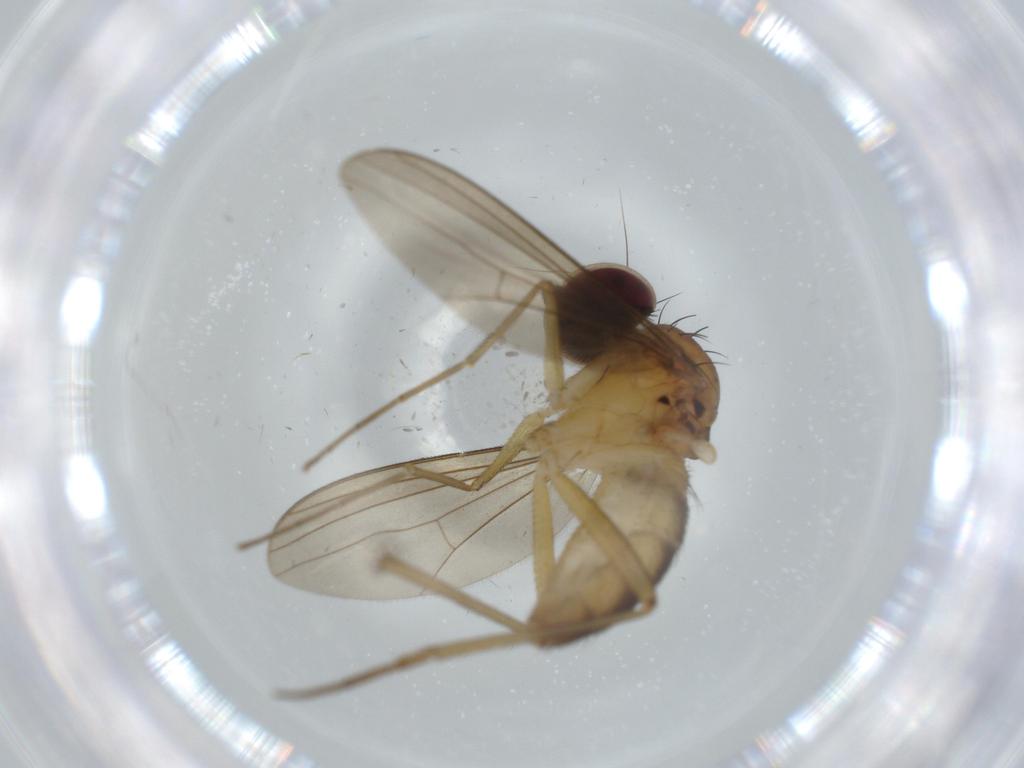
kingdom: Animalia
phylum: Arthropoda
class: Insecta
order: Diptera
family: Dolichopodidae
